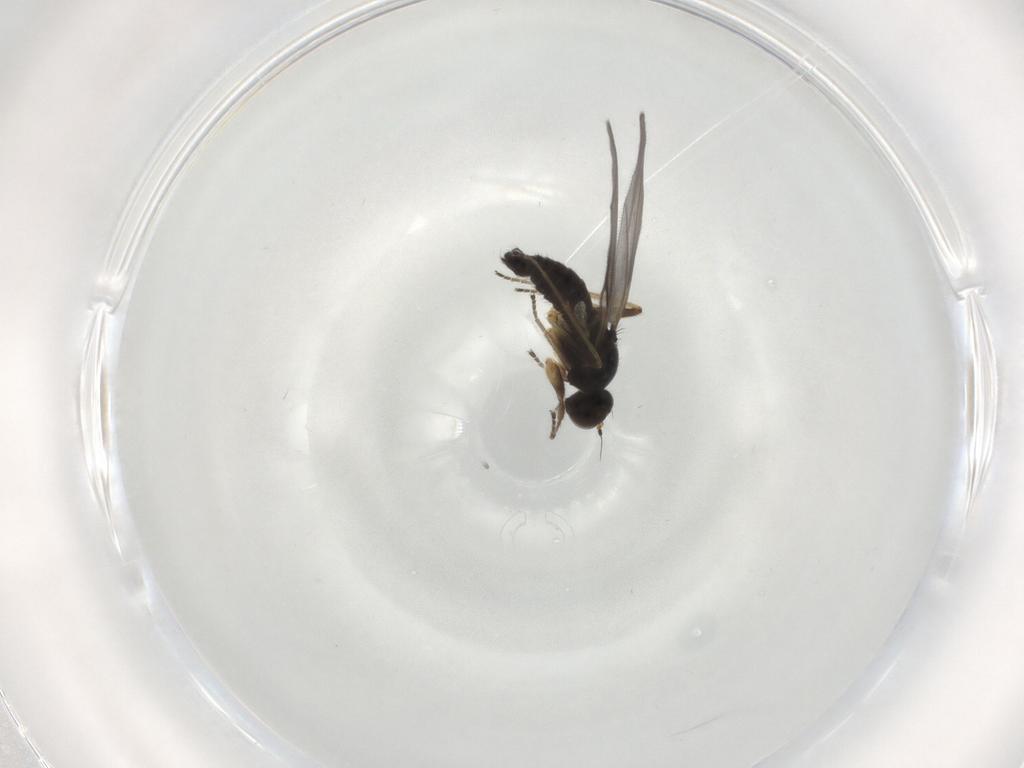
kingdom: Animalia
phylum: Arthropoda
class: Insecta
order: Diptera
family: Hybotidae
